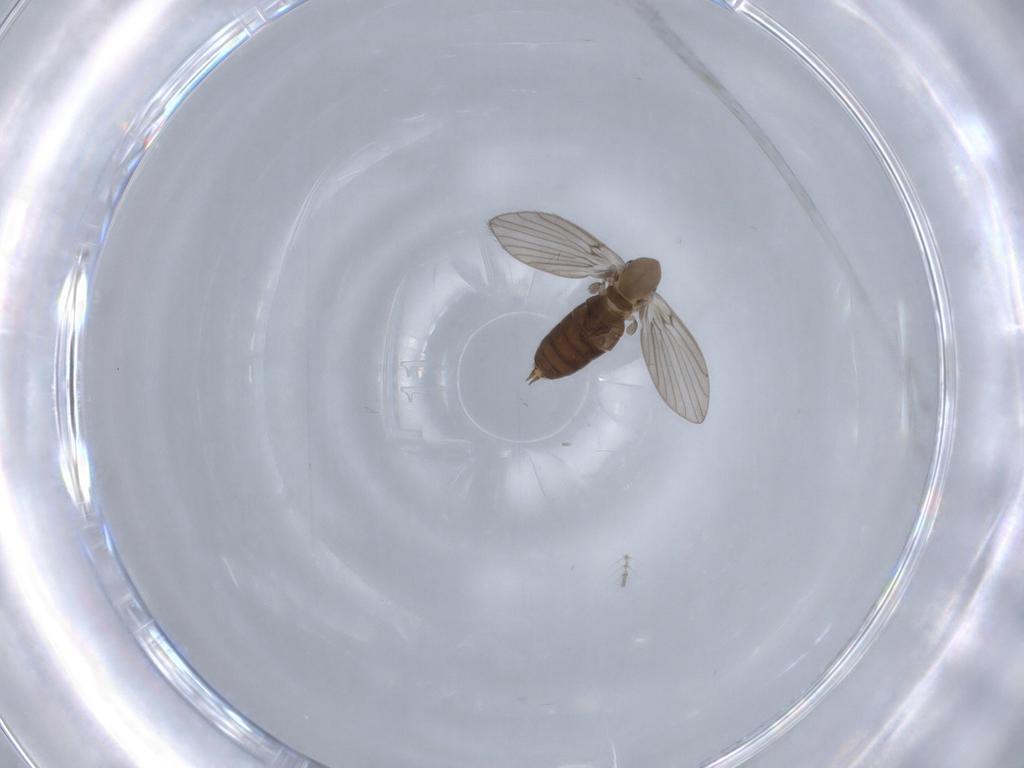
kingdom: Animalia
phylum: Arthropoda
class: Insecta
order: Diptera
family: Psychodidae
